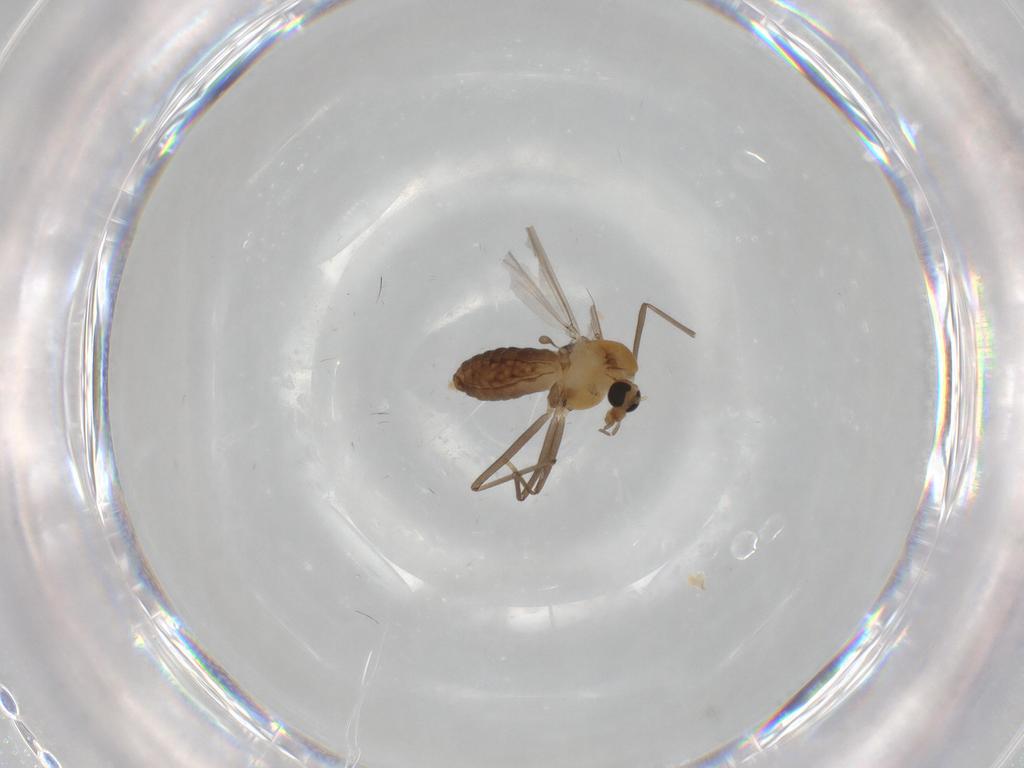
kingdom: Animalia
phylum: Arthropoda
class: Insecta
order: Diptera
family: Chironomidae
